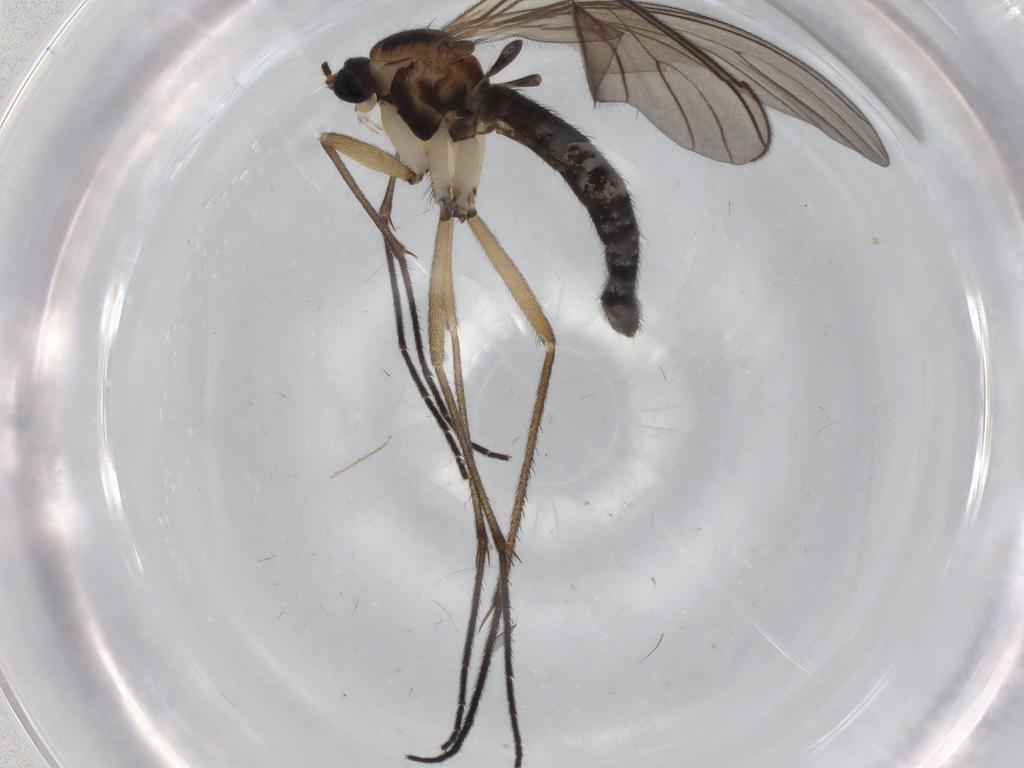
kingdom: Animalia
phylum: Arthropoda
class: Insecta
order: Diptera
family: Sciaridae
